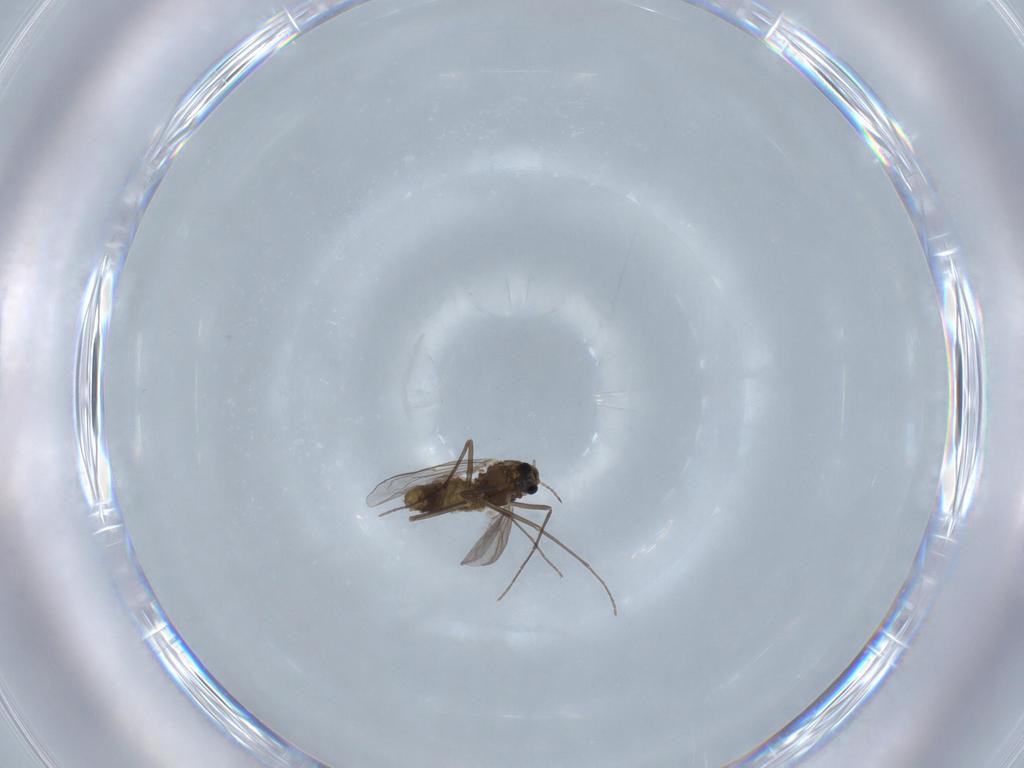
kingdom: Animalia
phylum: Arthropoda
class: Insecta
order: Diptera
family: Chironomidae
